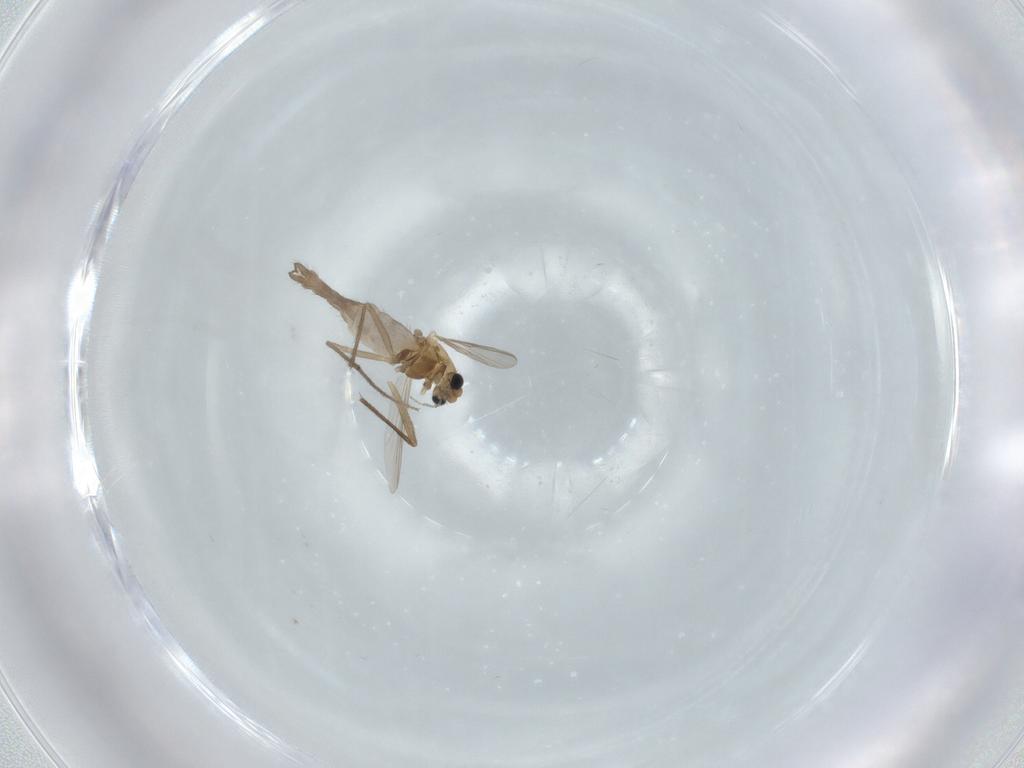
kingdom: Animalia
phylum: Arthropoda
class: Insecta
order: Diptera
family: Chironomidae
